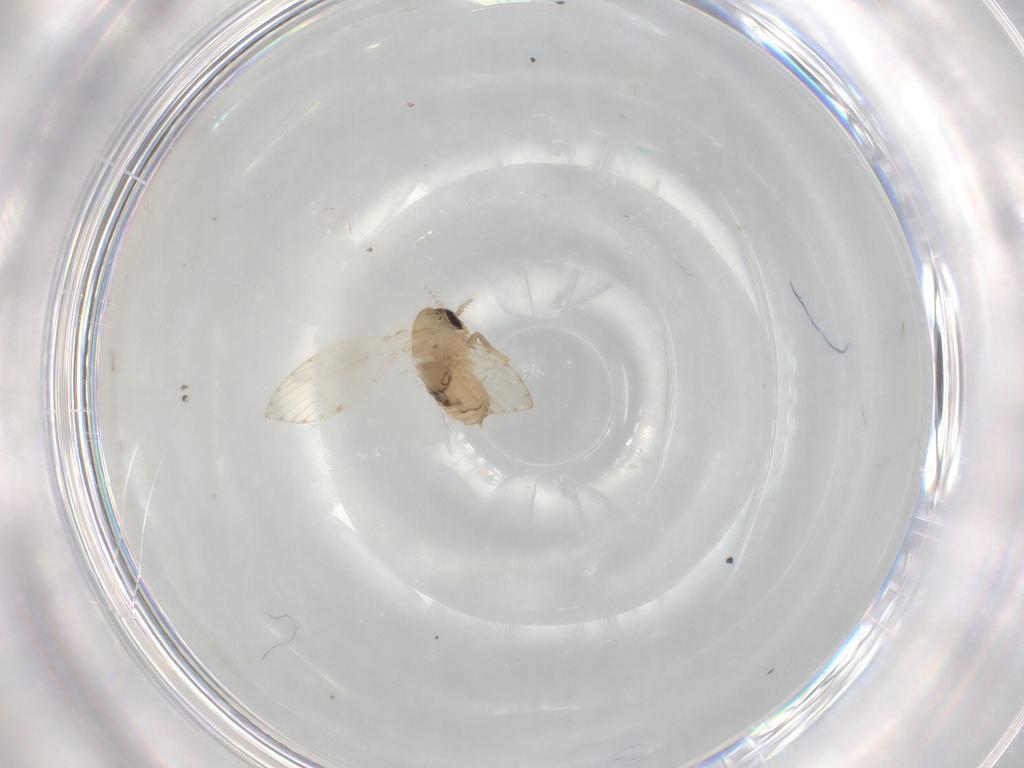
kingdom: Animalia
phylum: Arthropoda
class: Insecta
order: Diptera
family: Psychodidae
